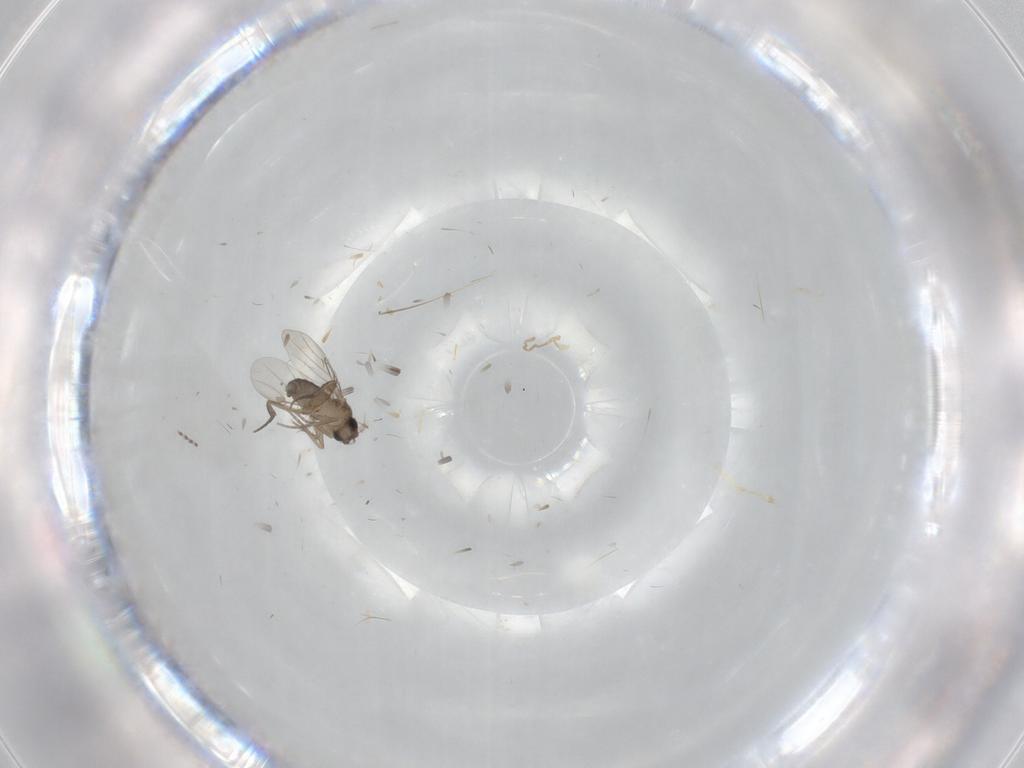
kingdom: Animalia
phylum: Arthropoda
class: Insecta
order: Diptera
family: Phoridae
